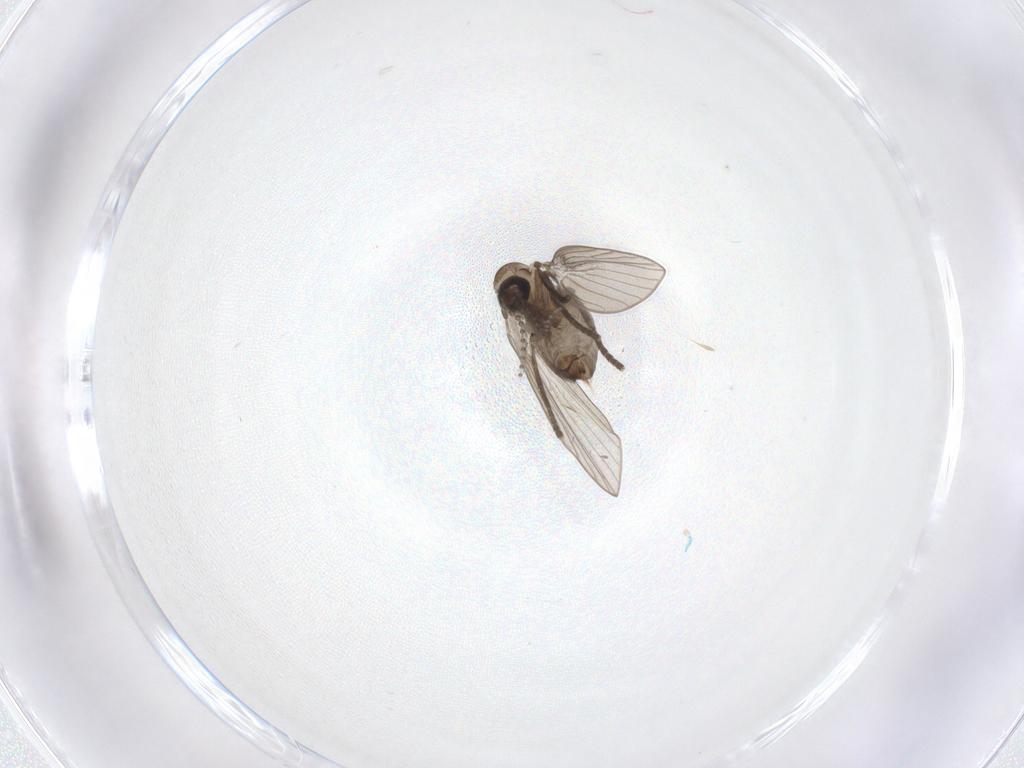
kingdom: Animalia
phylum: Arthropoda
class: Insecta
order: Diptera
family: Psychodidae
